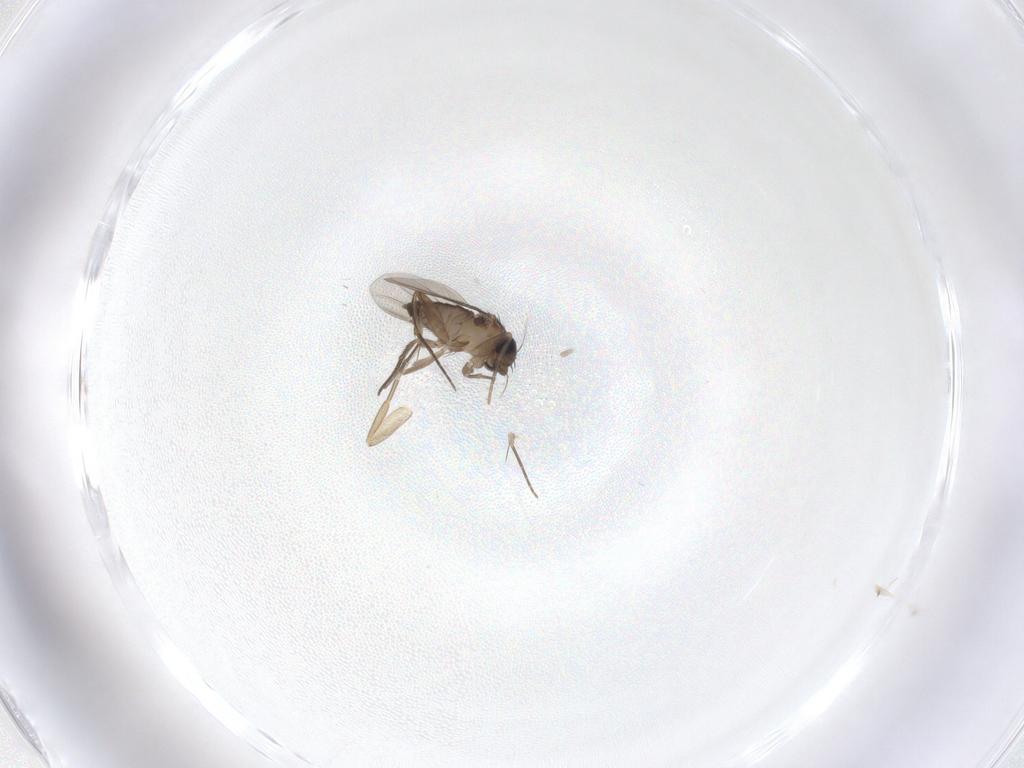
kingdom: Animalia
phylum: Arthropoda
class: Insecta
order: Diptera
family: Phoridae
